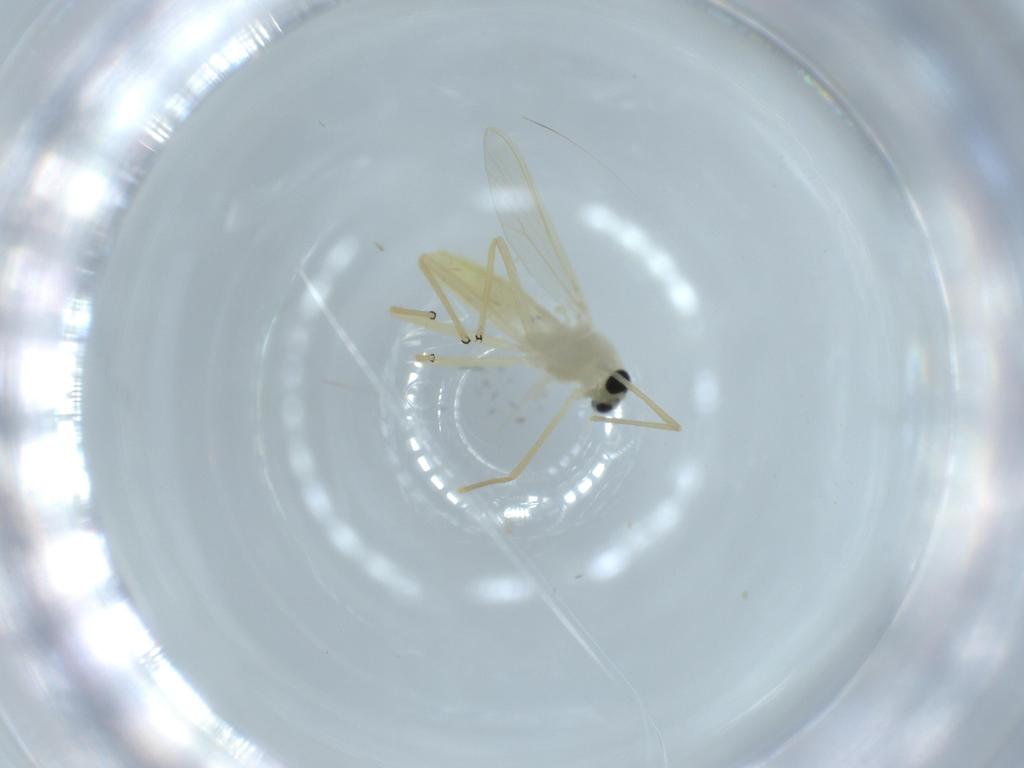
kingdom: Animalia
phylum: Arthropoda
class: Insecta
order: Diptera
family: Chironomidae
